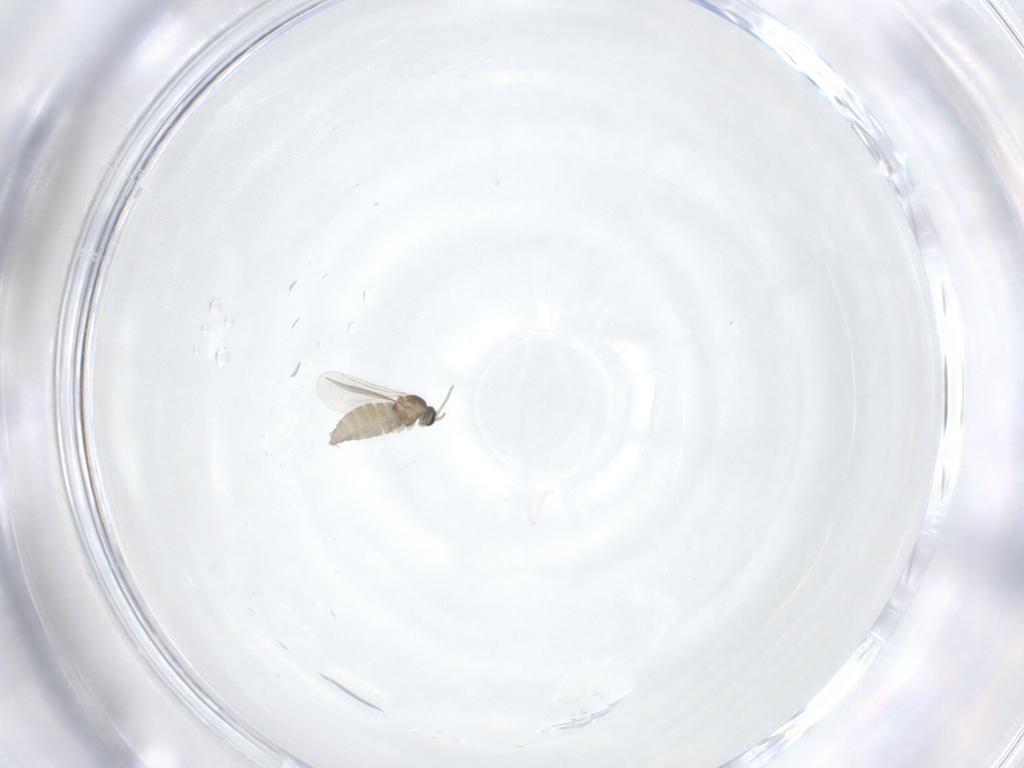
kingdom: Animalia
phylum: Arthropoda
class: Insecta
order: Diptera
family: Cecidomyiidae
